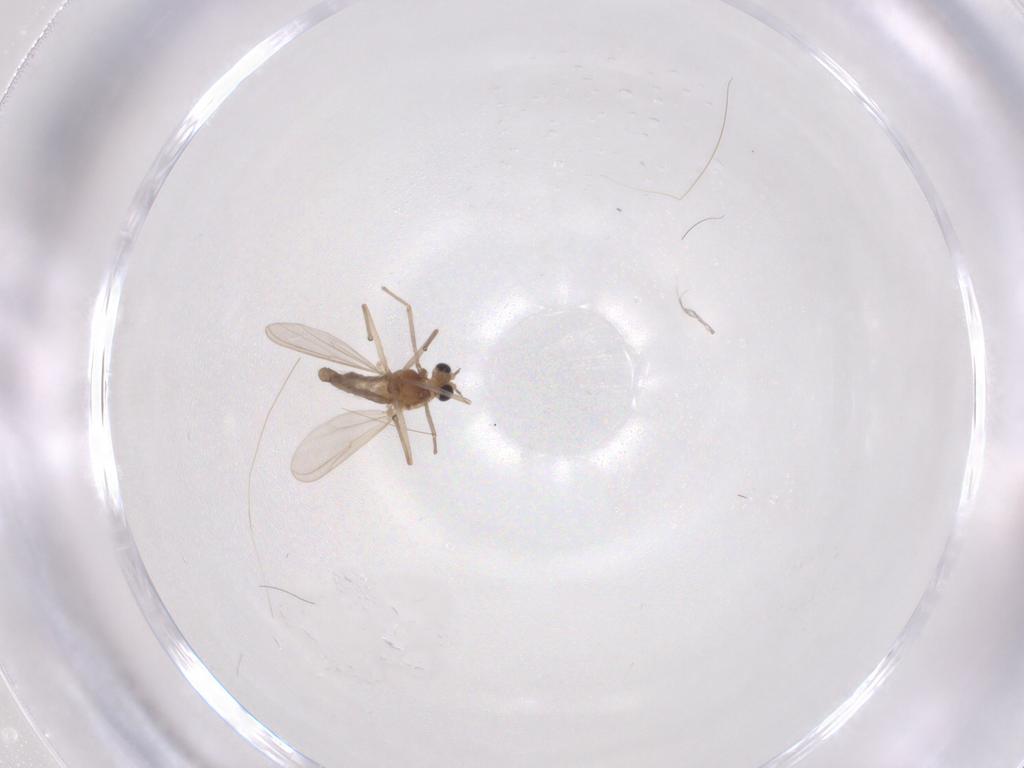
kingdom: Animalia
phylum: Arthropoda
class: Insecta
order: Diptera
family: Chironomidae
